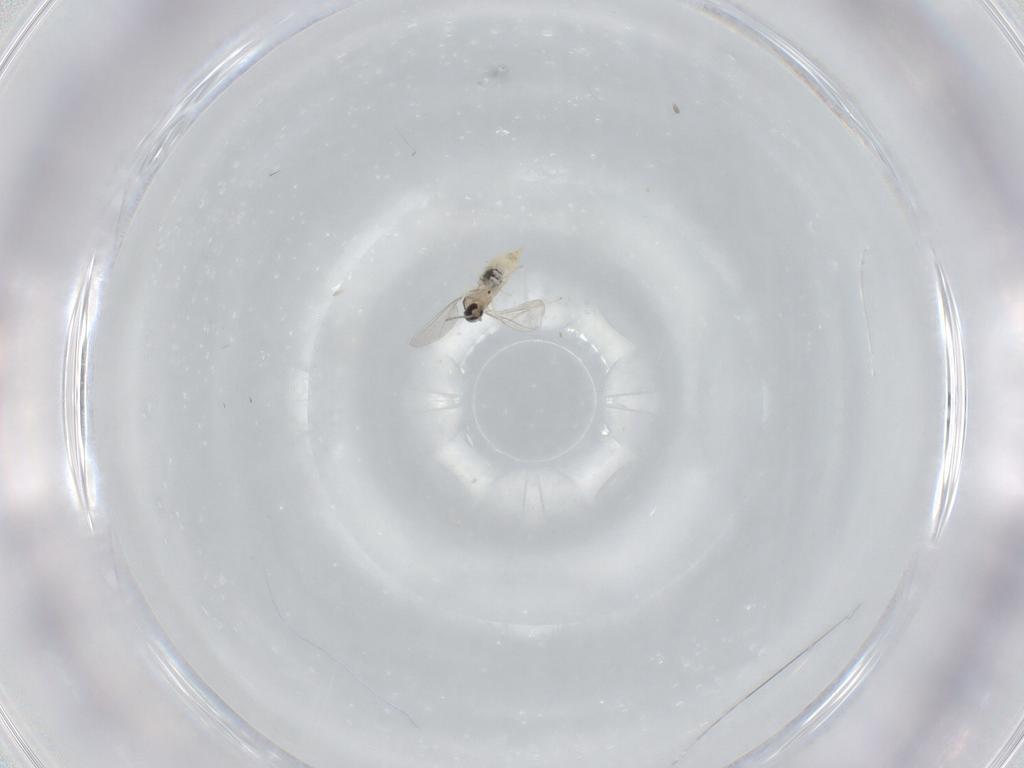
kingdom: Animalia
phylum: Arthropoda
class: Insecta
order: Diptera
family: Cecidomyiidae
